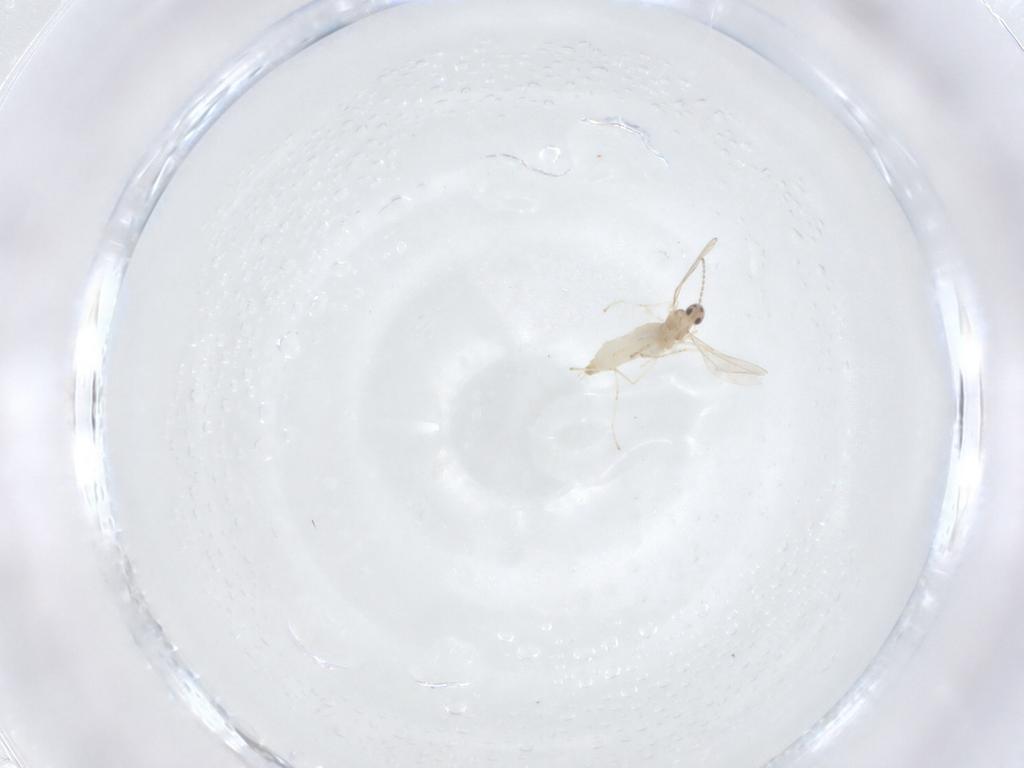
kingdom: Animalia
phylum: Arthropoda
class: Insecta
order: Diptera
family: Cecidomyiidae
